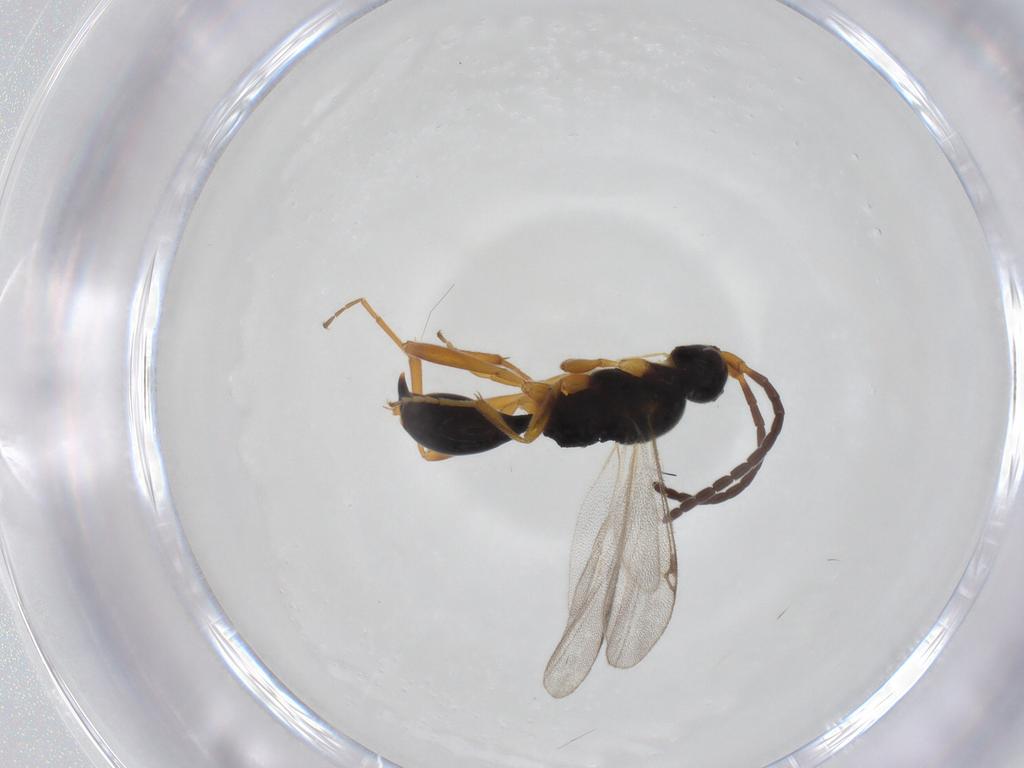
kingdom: Animalia
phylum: Arthropoda
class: Insecta
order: Hymenoptera
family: Proctotrupidae
